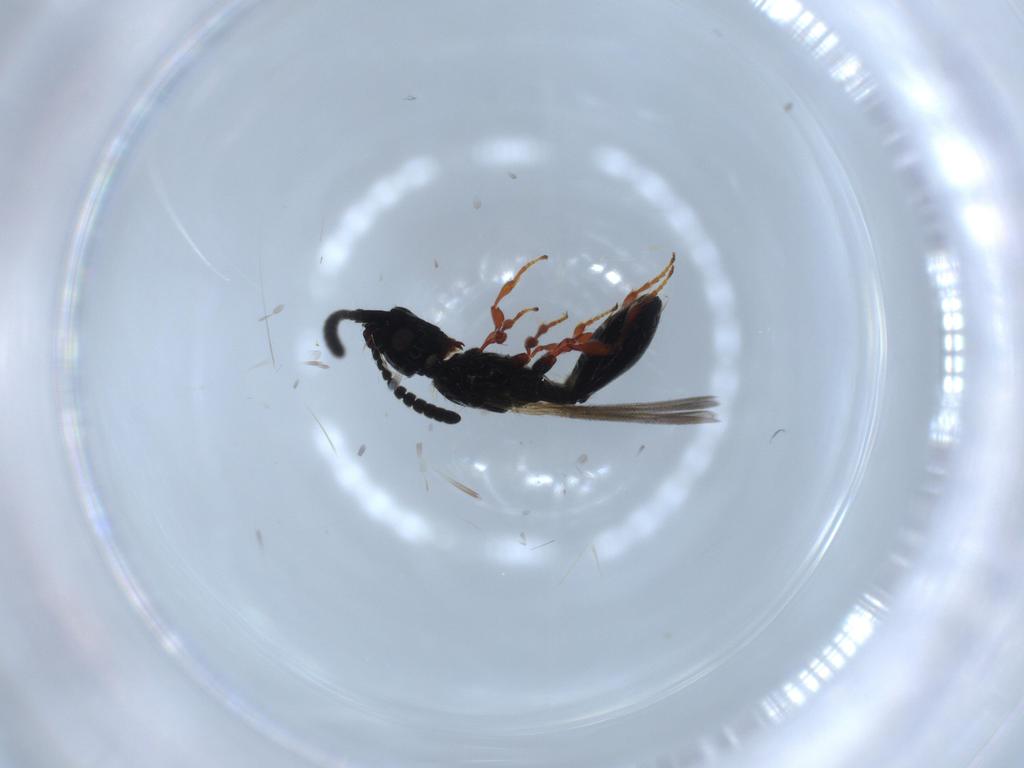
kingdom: Animalia
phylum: Arthropoda
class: Insecta
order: Hymenoptera
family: Diapriidae
